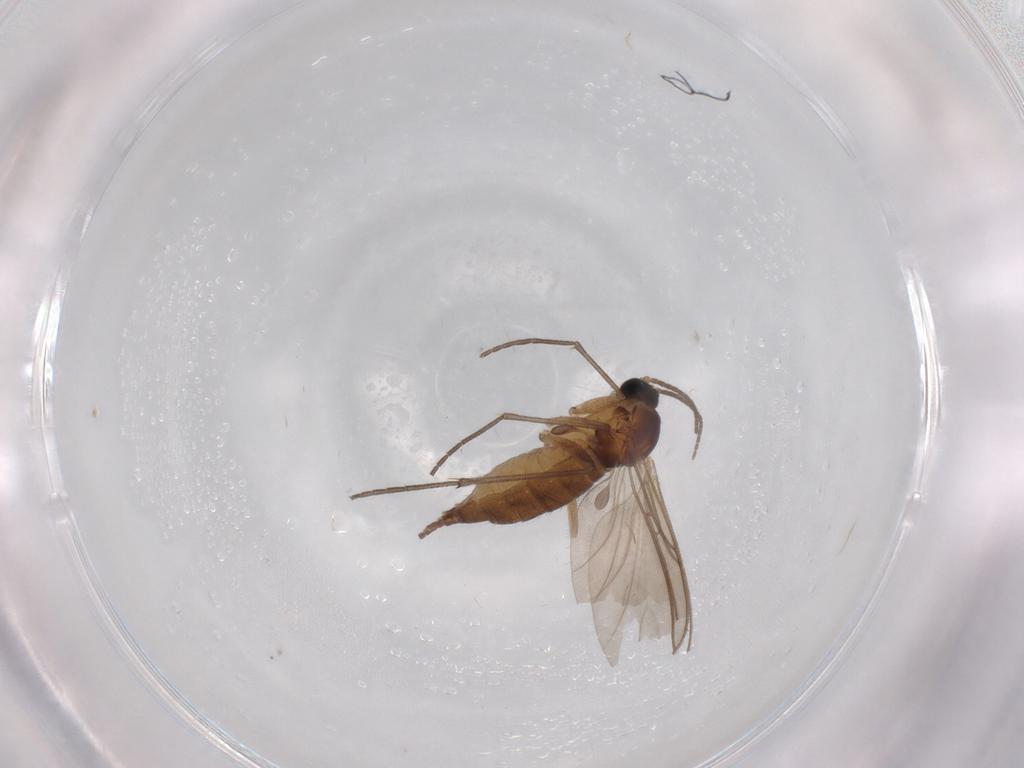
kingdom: Animalia
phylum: Arthropoda
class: Insecta
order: Diptera
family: Sciaridae
